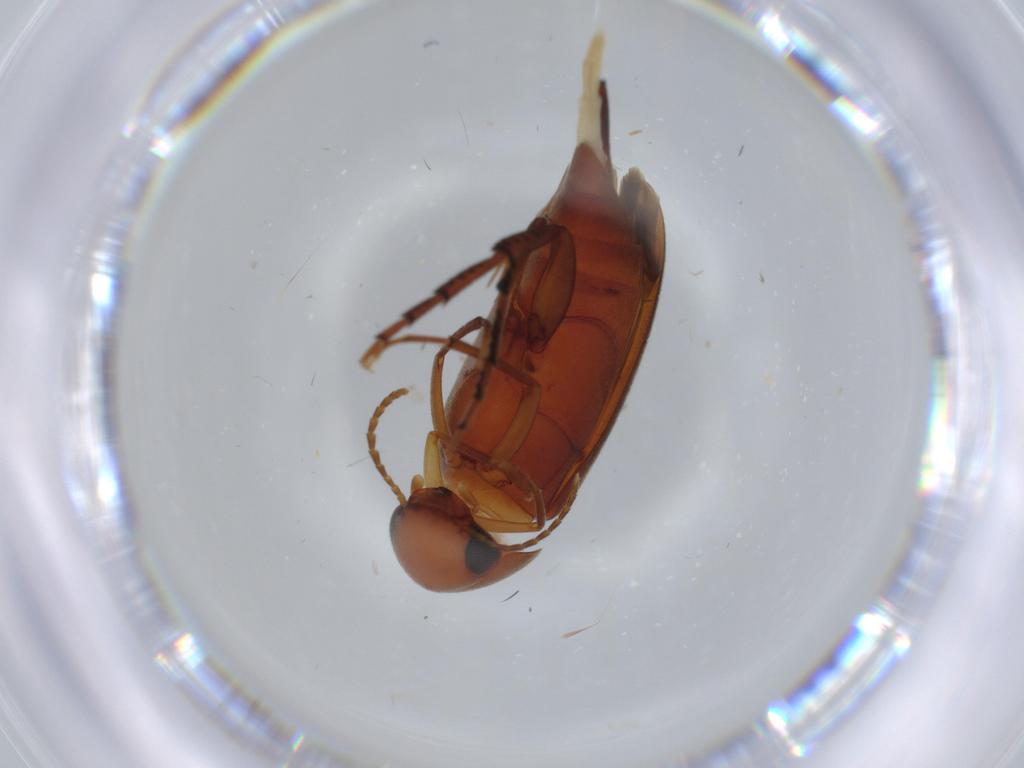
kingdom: Animalia
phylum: Arthropoda
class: Insecta
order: Coleoptera
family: Mordellidae
